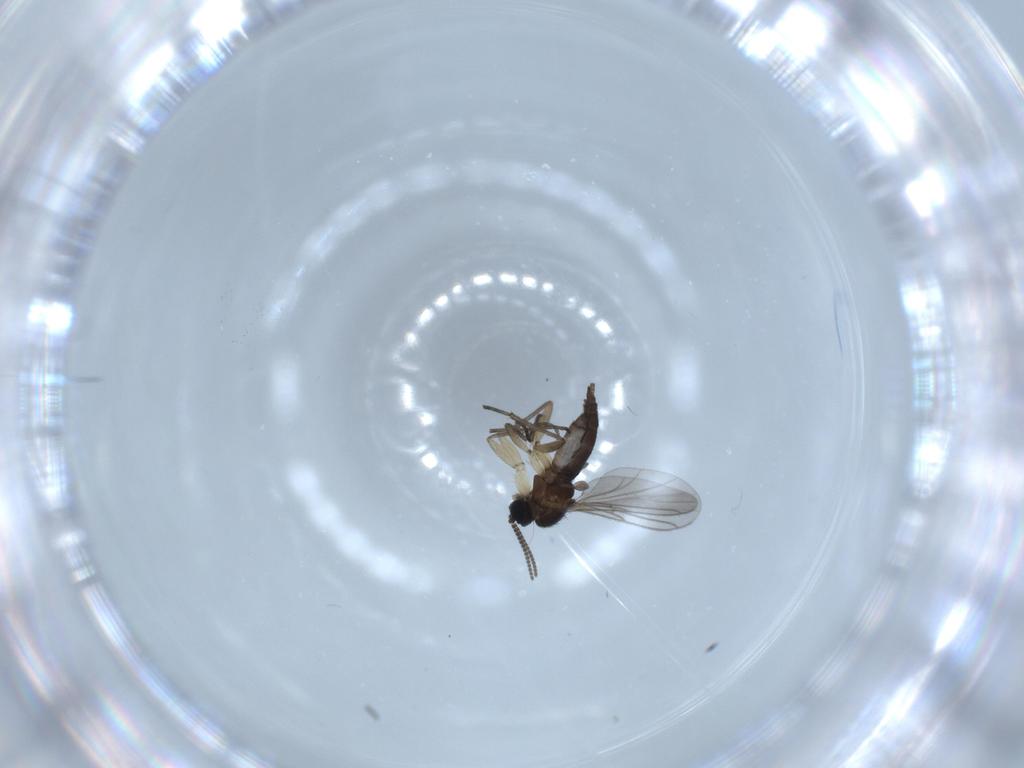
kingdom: Animalia
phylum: Arthropoda
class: Insecta
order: Diptera
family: Sciaridae
